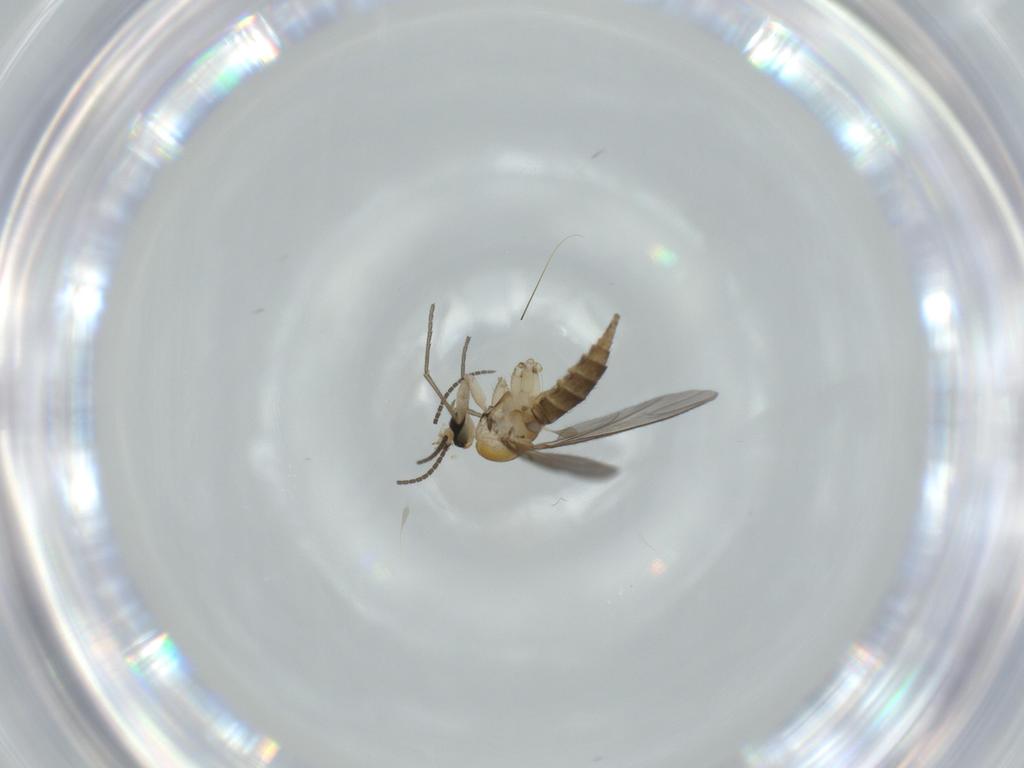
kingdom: Animalia
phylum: Arthropoda
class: Insecta
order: Diptera
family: Sciaridae
